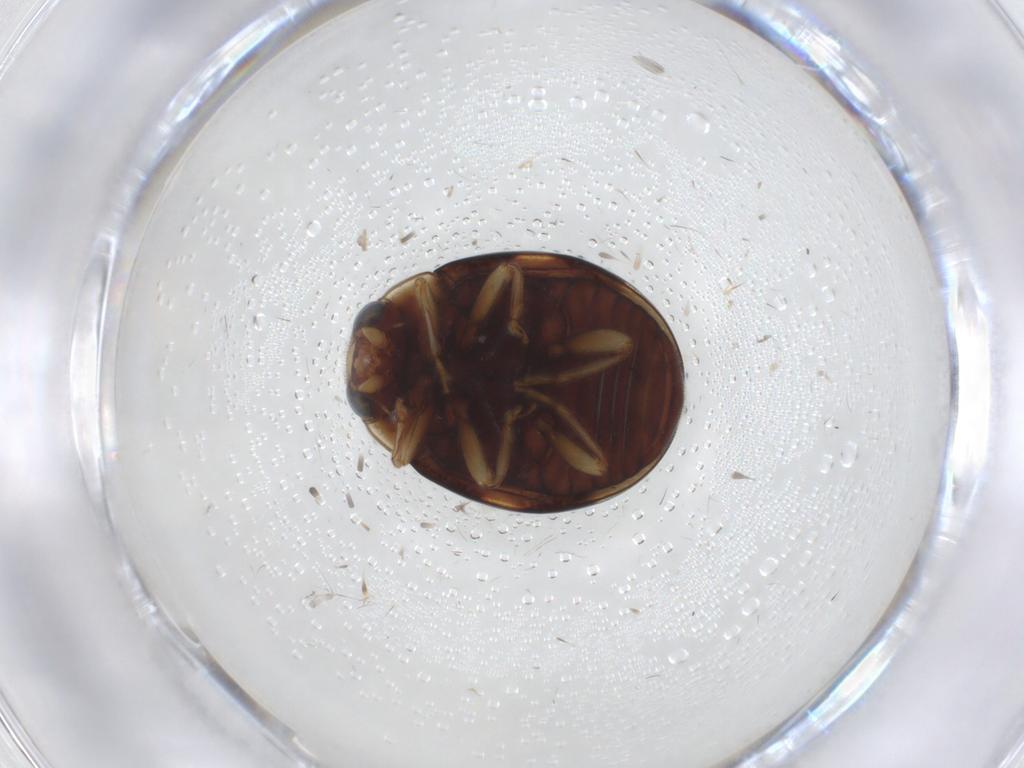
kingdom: Animalia
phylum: Arthropoda
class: Insecta
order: Coleoptera
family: Coccinellidae
